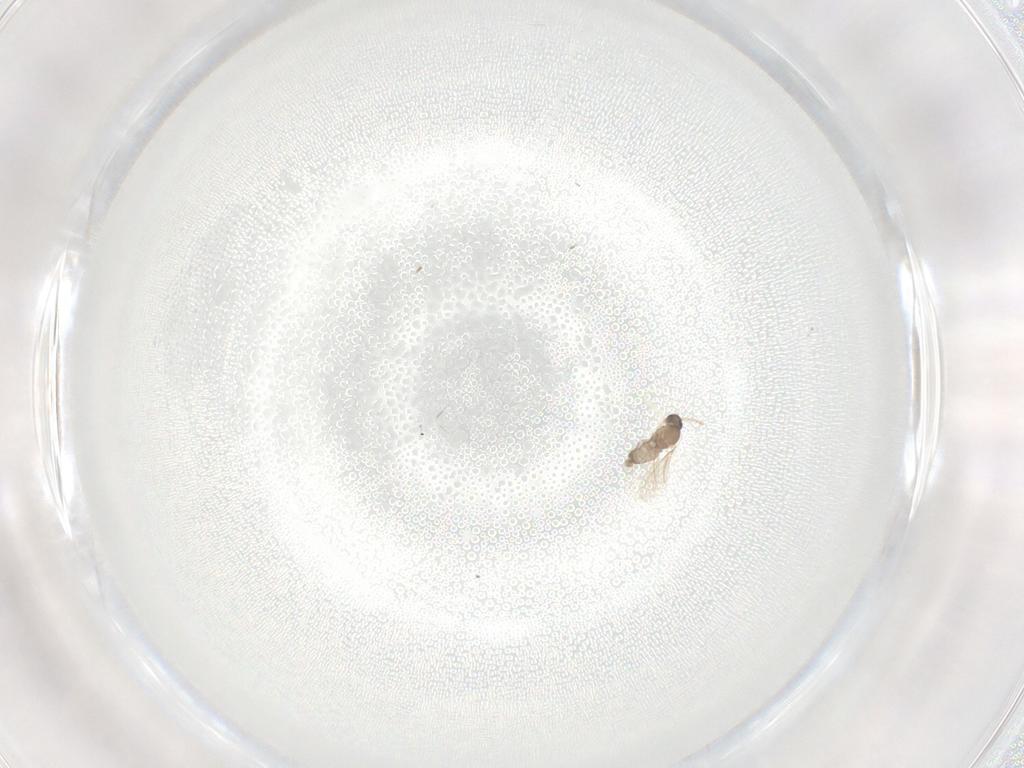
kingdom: Animalia
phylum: Arthropoda
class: Insecta
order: Diptera
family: Cecidomyiidae
